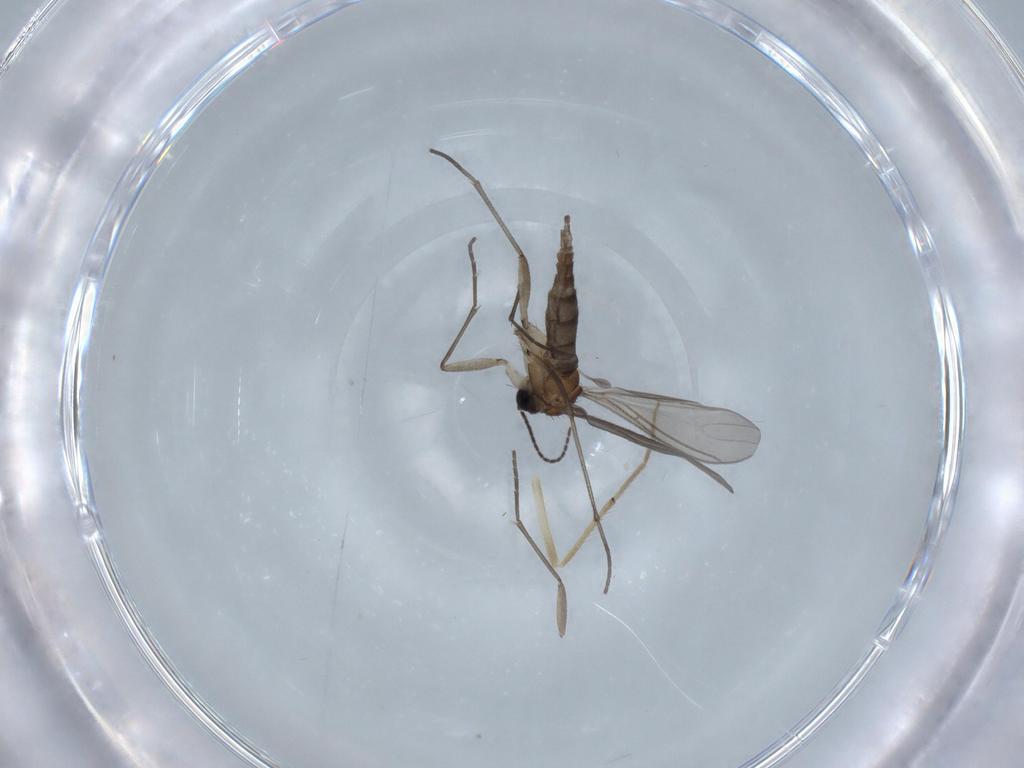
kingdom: Animalia
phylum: Arthropoda
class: Insecta
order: Diptera
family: Sciaridae
